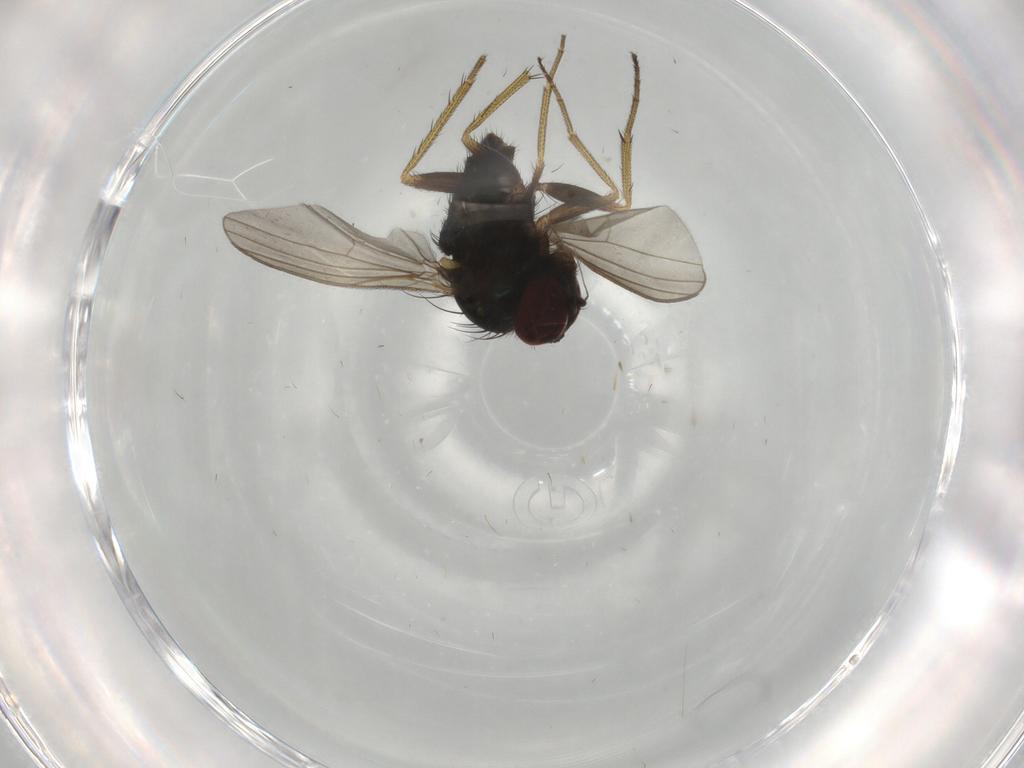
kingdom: Animalia
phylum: Arthropoda
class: Insecta
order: Diptera
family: Dolichopodidae
